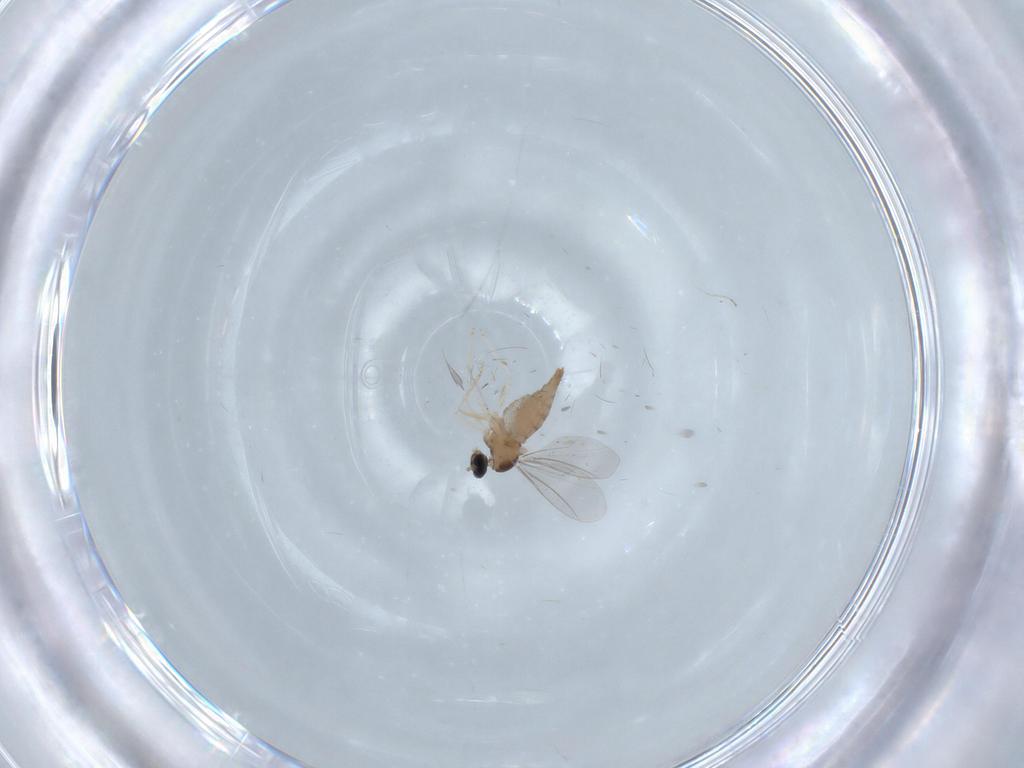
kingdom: Animalia
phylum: Arthropoda
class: Insecta
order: Diptera
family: Cecidomyiidae
